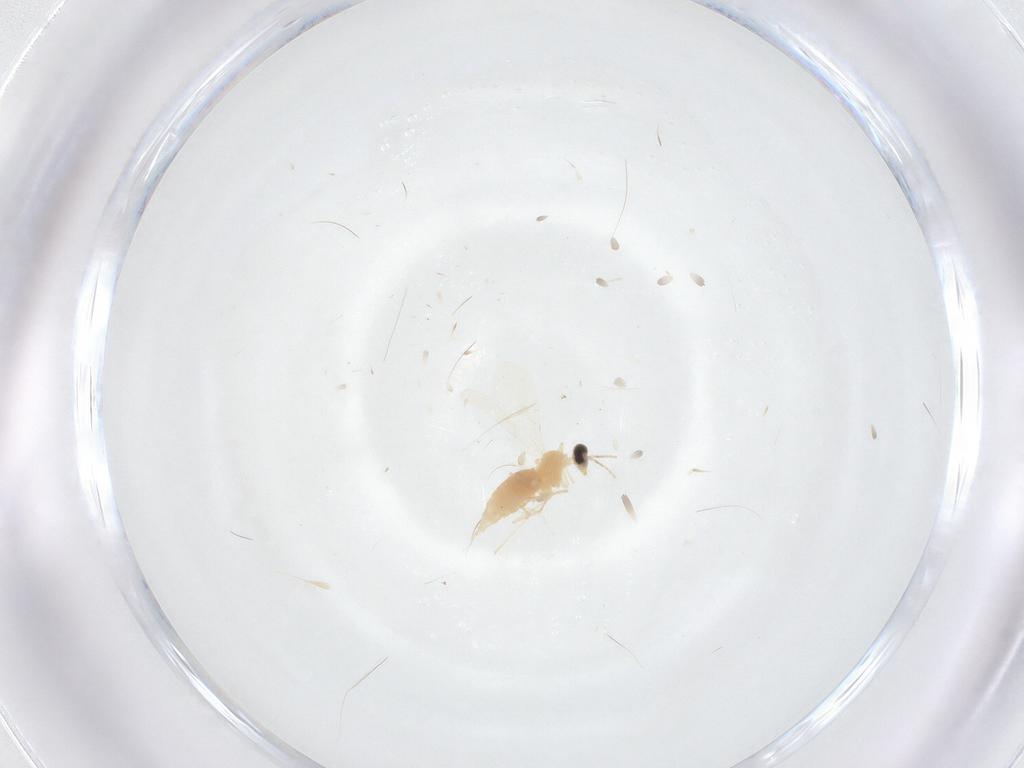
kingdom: Animalia
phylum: Arthropoda
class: Insecta
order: Diptera
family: Cecidomyiidae
